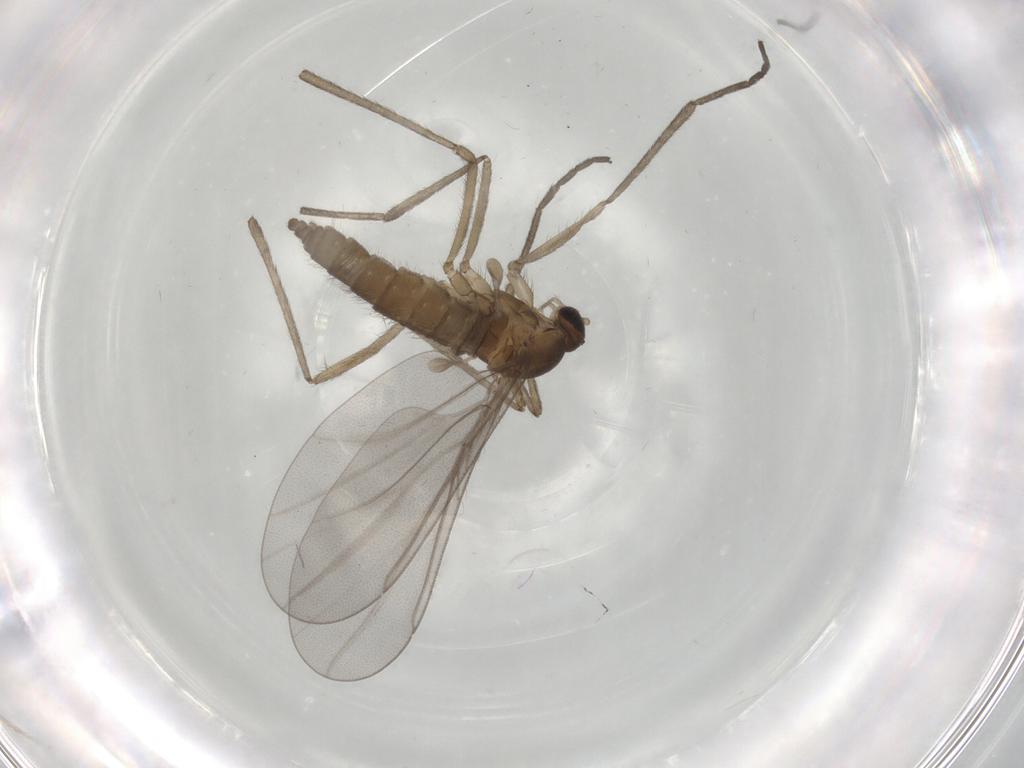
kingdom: Animalia
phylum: Arthropoda
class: Insecta
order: Diptera
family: Cecidomyiidae
